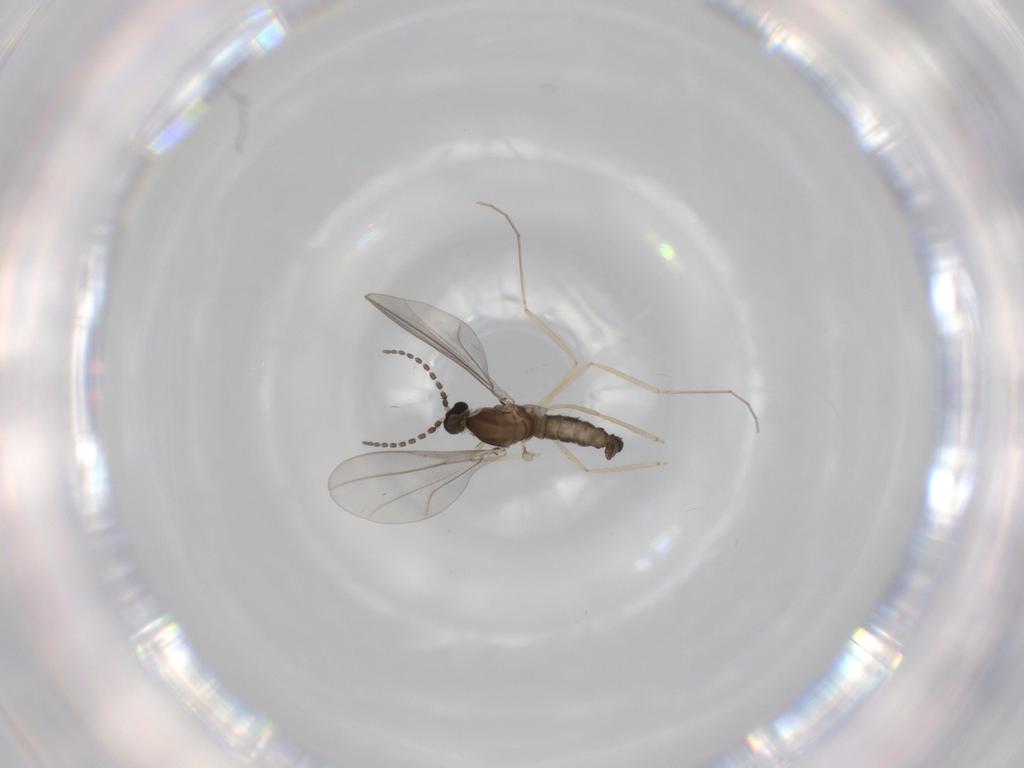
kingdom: Animalia
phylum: Arthropoda
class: Insecta
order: Diptera
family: Cecidomyiidae
